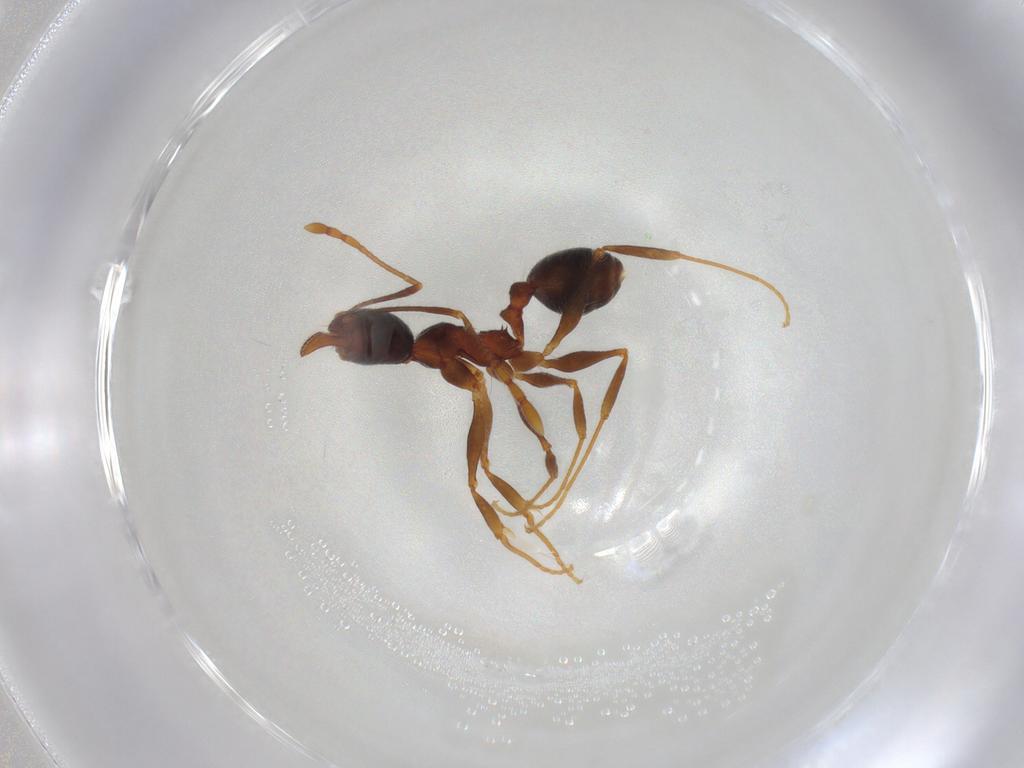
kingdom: Animalia
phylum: Arthropoda
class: Insecta
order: Hymenoptera
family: Formicidae
